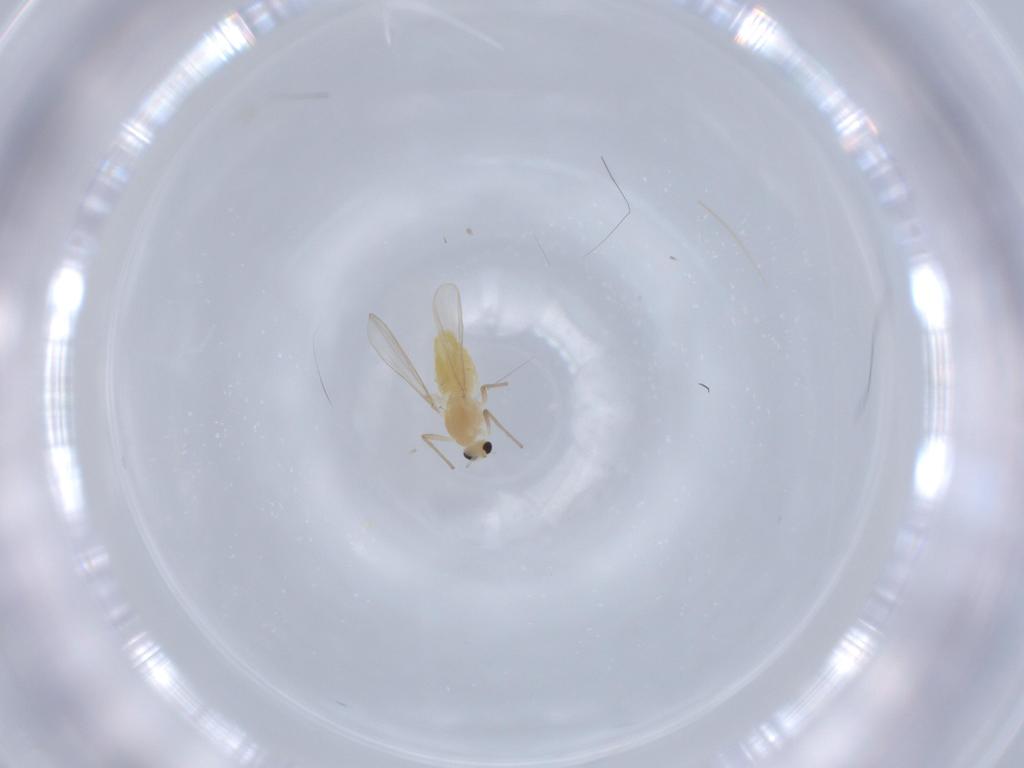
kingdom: Animalia
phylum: Arthropoda
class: Insecta
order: Diptera
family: Chironomidae
